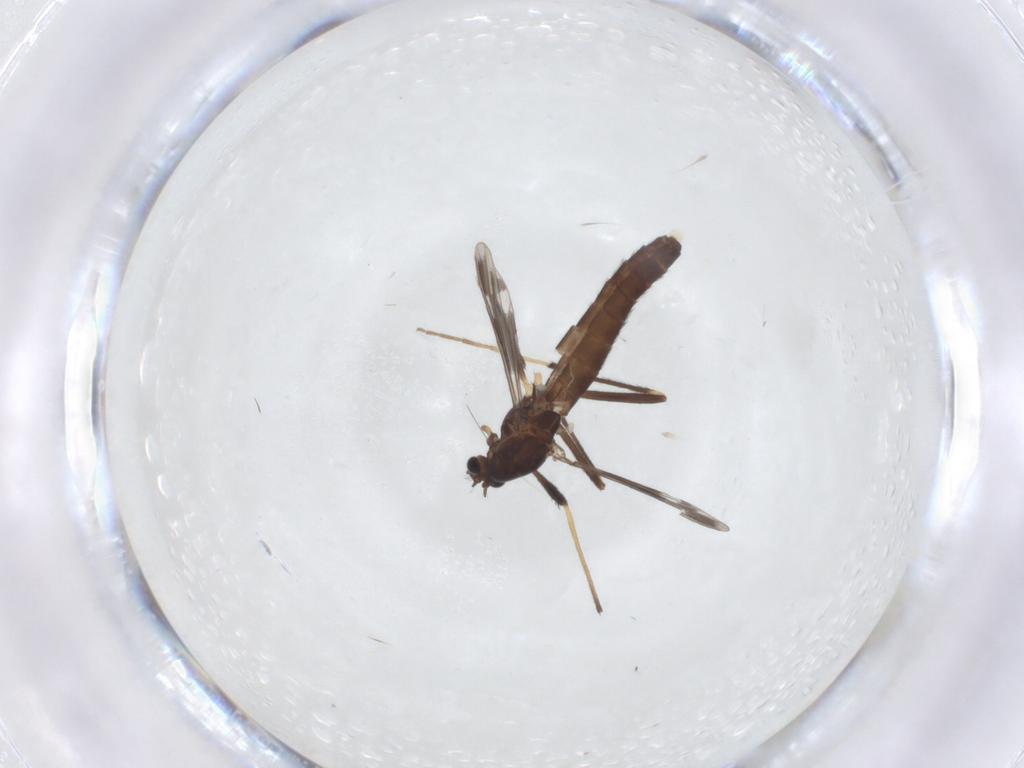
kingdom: Animalia
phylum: Arthropoda
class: Insecta
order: Diptera
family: Chironomidae
